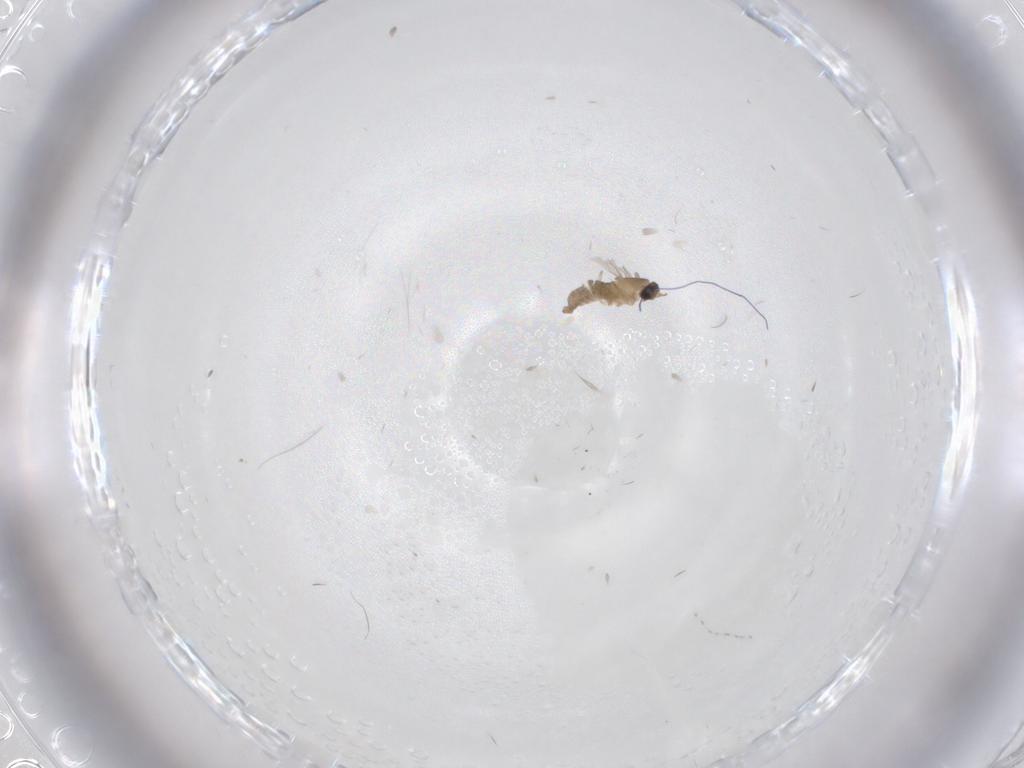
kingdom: Animalia
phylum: Arthropoda
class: Insecta
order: Diptera
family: Cecidomyiidae
